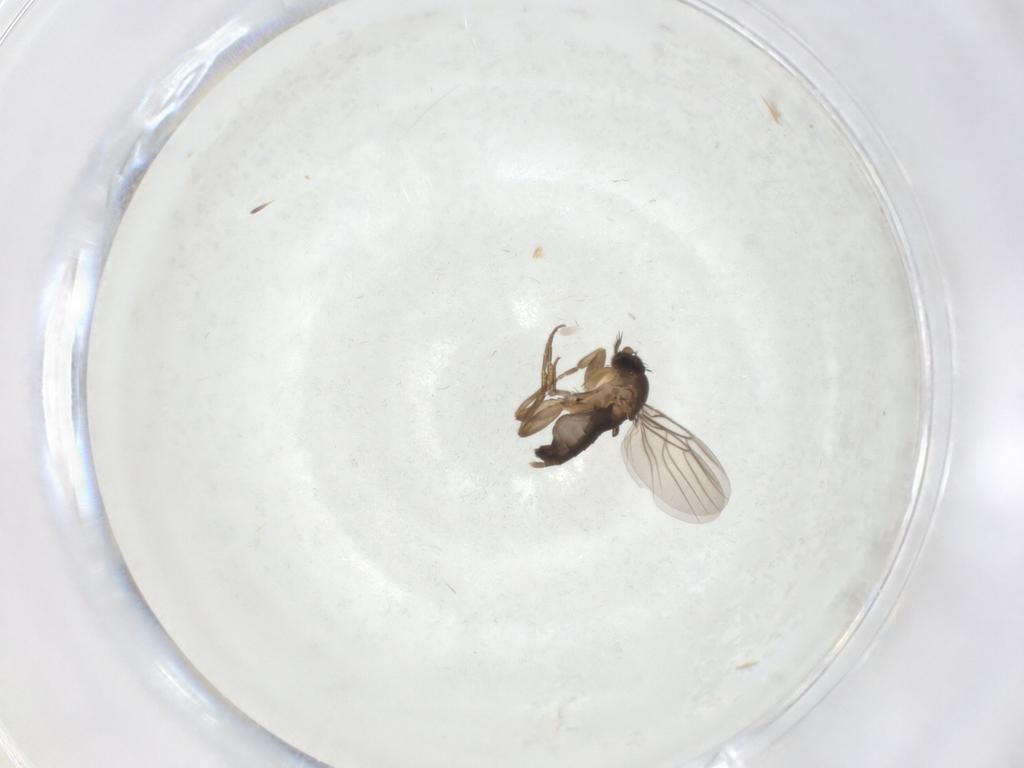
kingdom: Animalia
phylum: Arthropoda
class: Insecta
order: Diptera
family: Phoridae
